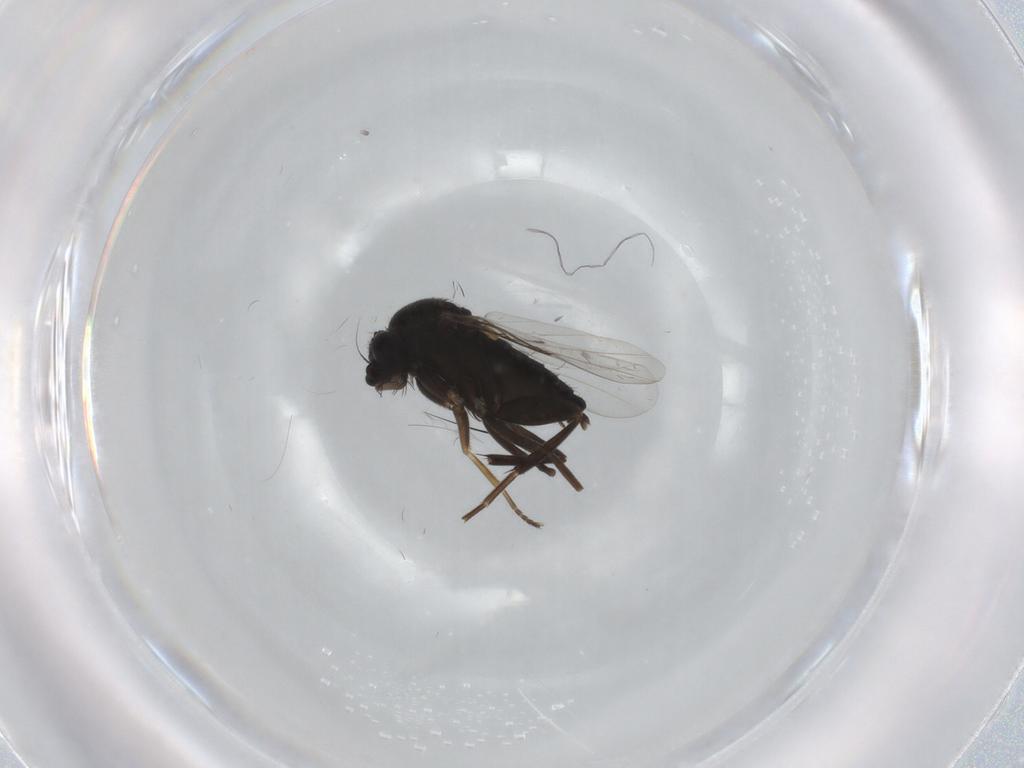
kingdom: Animalia
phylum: Arthropoda
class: Insecta
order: Diptera
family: Phoridae
